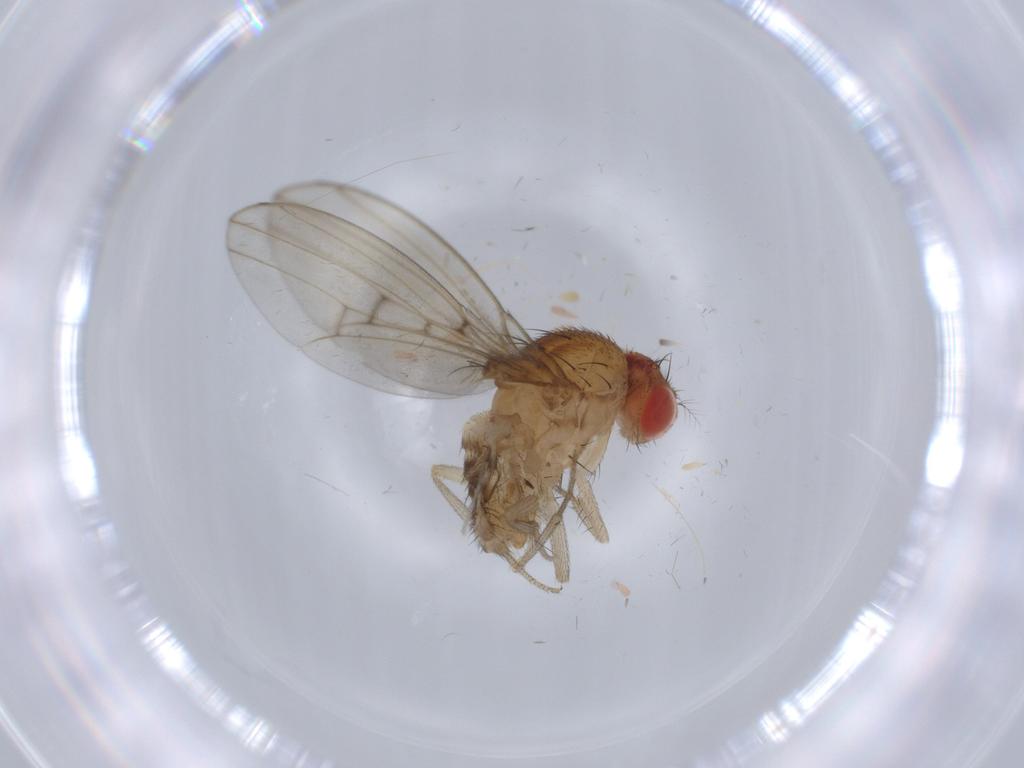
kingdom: Animalia
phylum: Arthropoda
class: Insecta
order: Diptera
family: Drosophilidae
